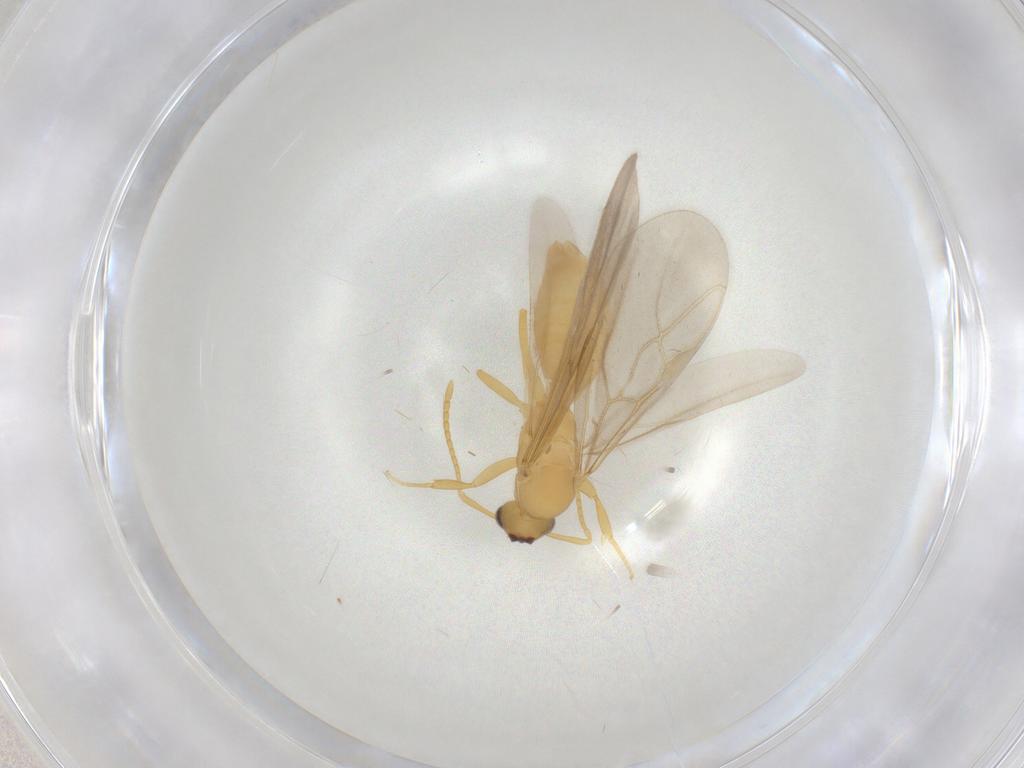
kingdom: Animalia
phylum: Arthropoda
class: Insecta
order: Hymenoptera
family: Formicidae
